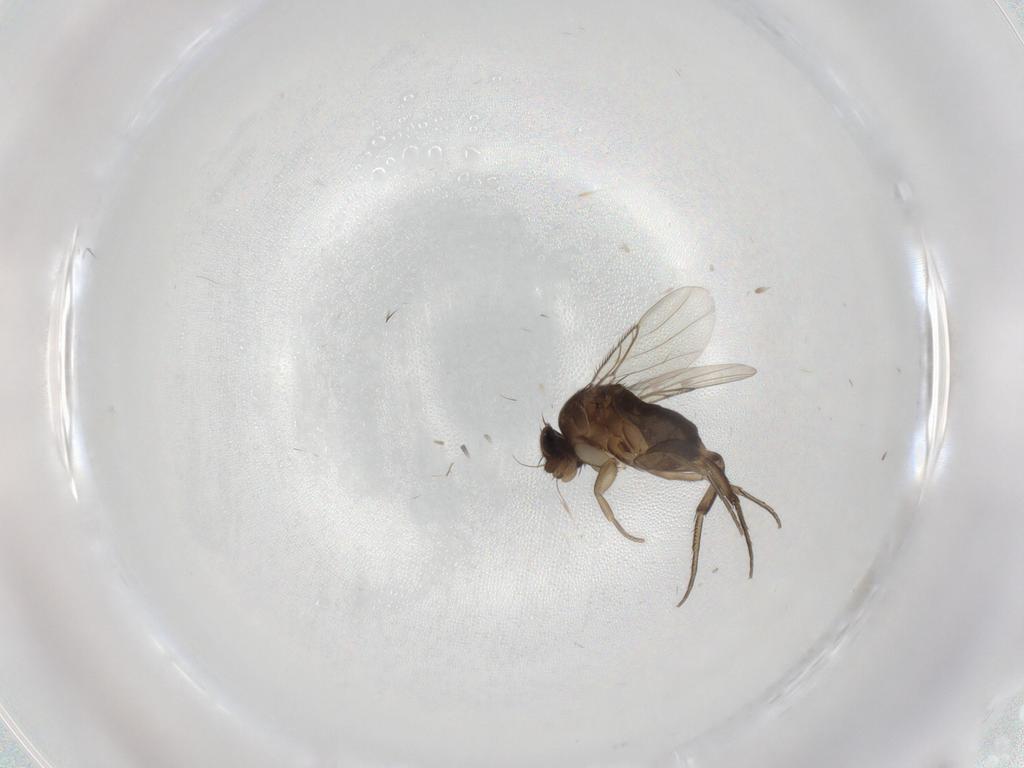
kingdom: Animalia
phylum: Arthropoda
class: Insecta
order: Diptera
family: Phoridae
